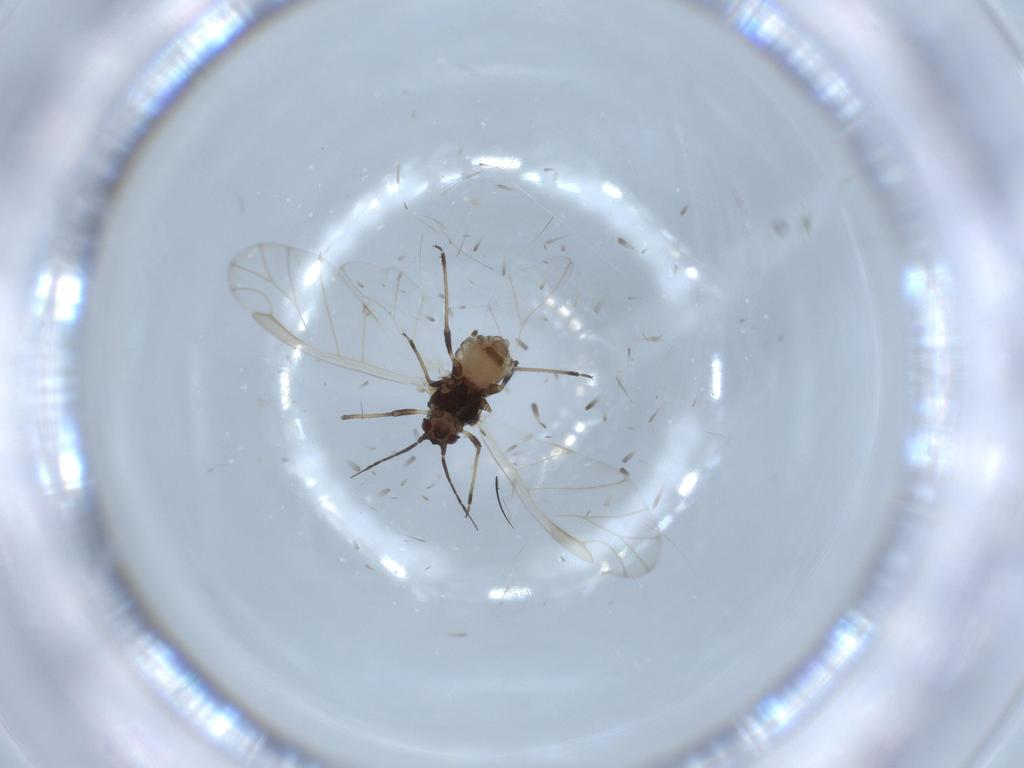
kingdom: Animalia
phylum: Arthropoda
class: Insecta
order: Hemiptera
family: Aphididae
